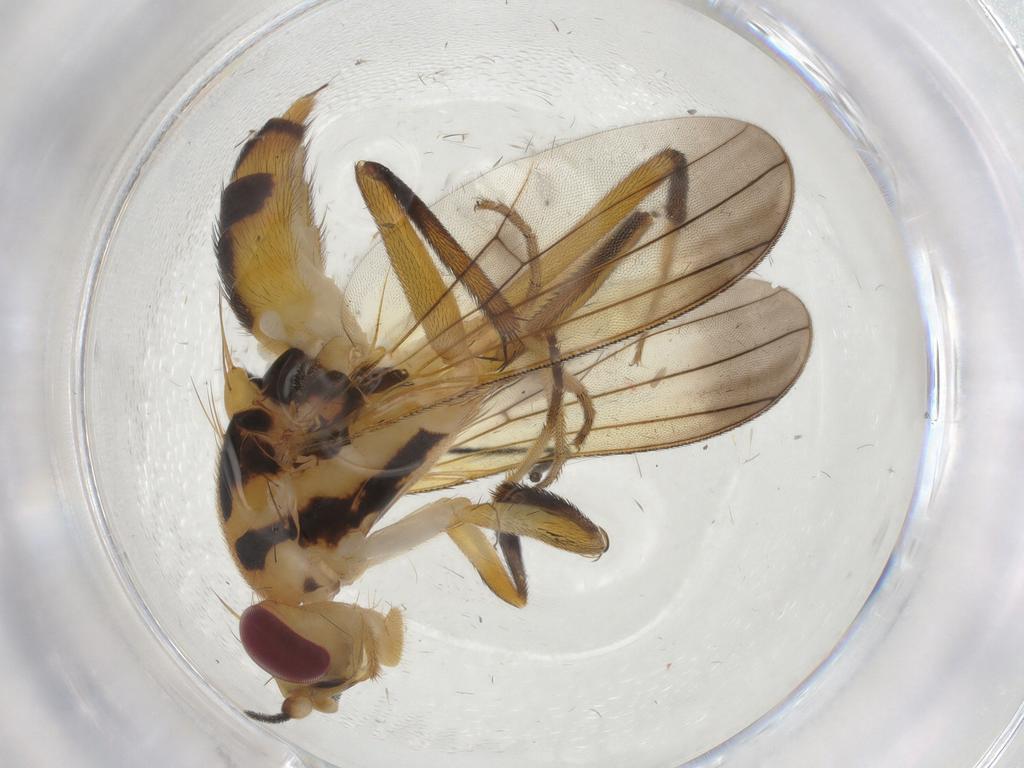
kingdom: Animalia
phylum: Arthropoda
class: Insecta
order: Diptera
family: Clusiidae
